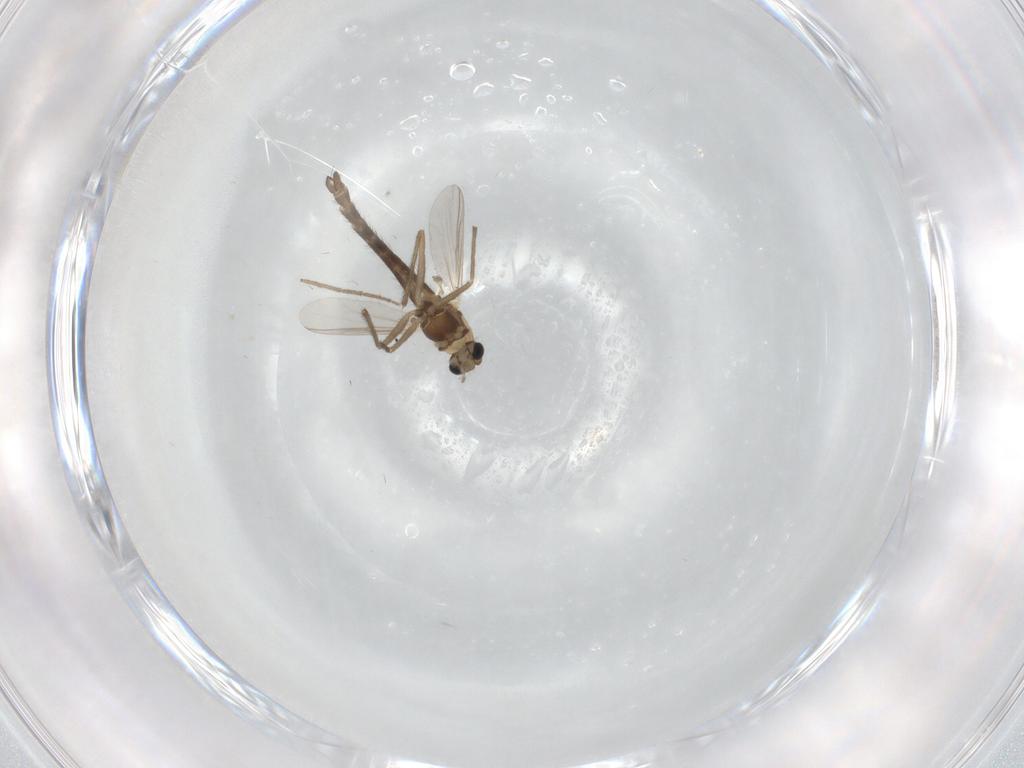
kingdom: Animalia
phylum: Arthropoda
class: Insecta
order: Diptera
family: Chironomidae
